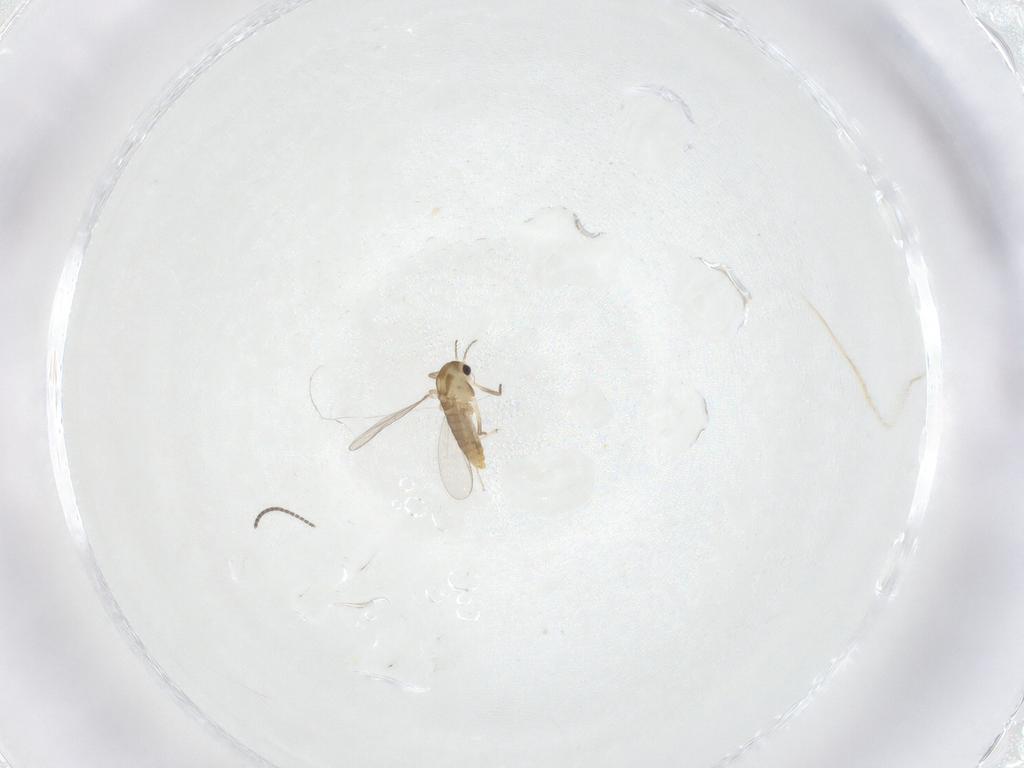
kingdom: Animalia
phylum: Arthropoda
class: Insecta
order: Diptera
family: Chironomidae
